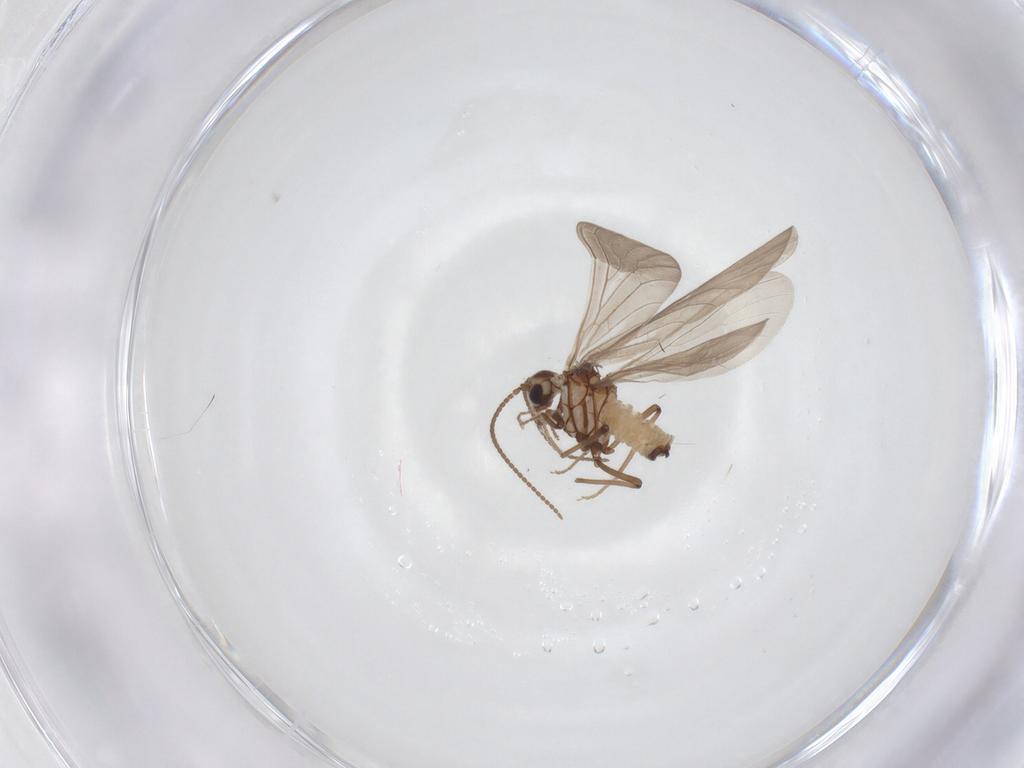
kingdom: Animalia
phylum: Arthropoda
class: Insecta
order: Neuroptera
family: Coniopterygidae
